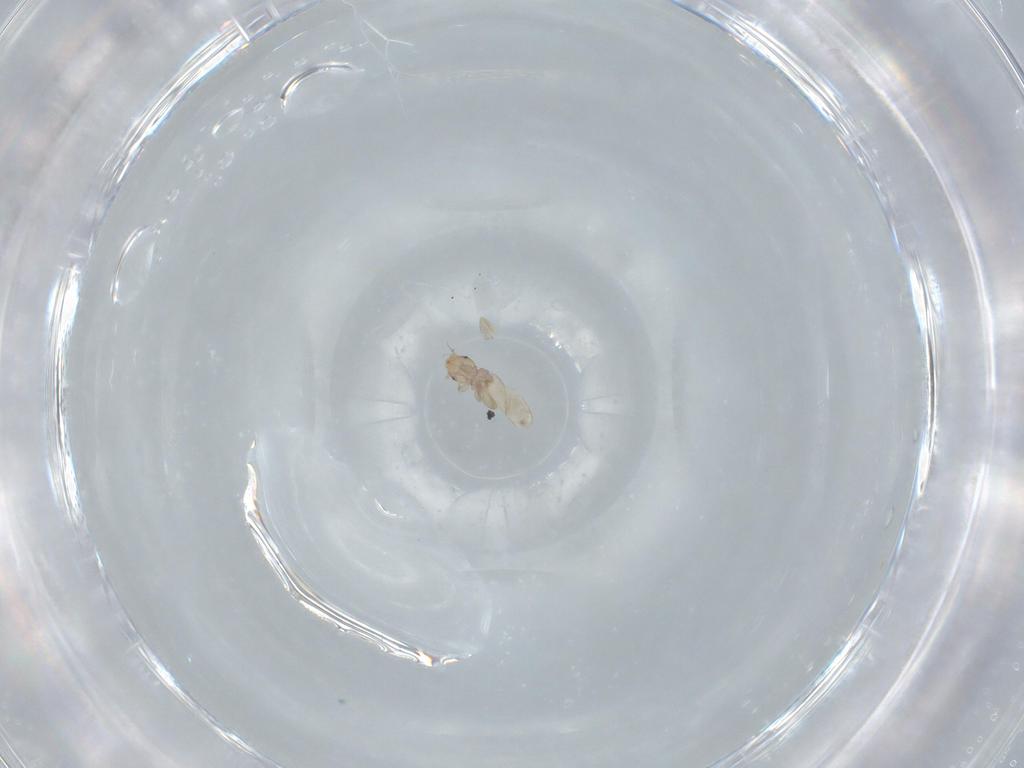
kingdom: Animalia
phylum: Arthropoda
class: Insecta
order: Psocodea
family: Liposcelididae
